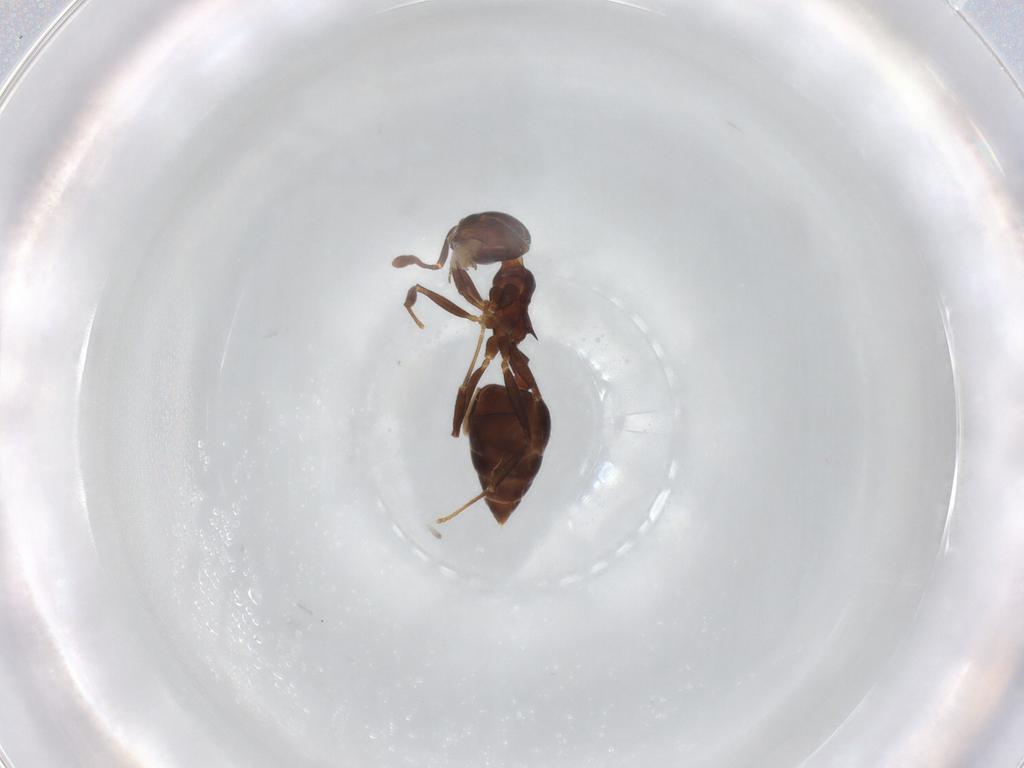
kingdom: Animalia
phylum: Arthropoda
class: Insecta
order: Hymenoptera
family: Formicidae
